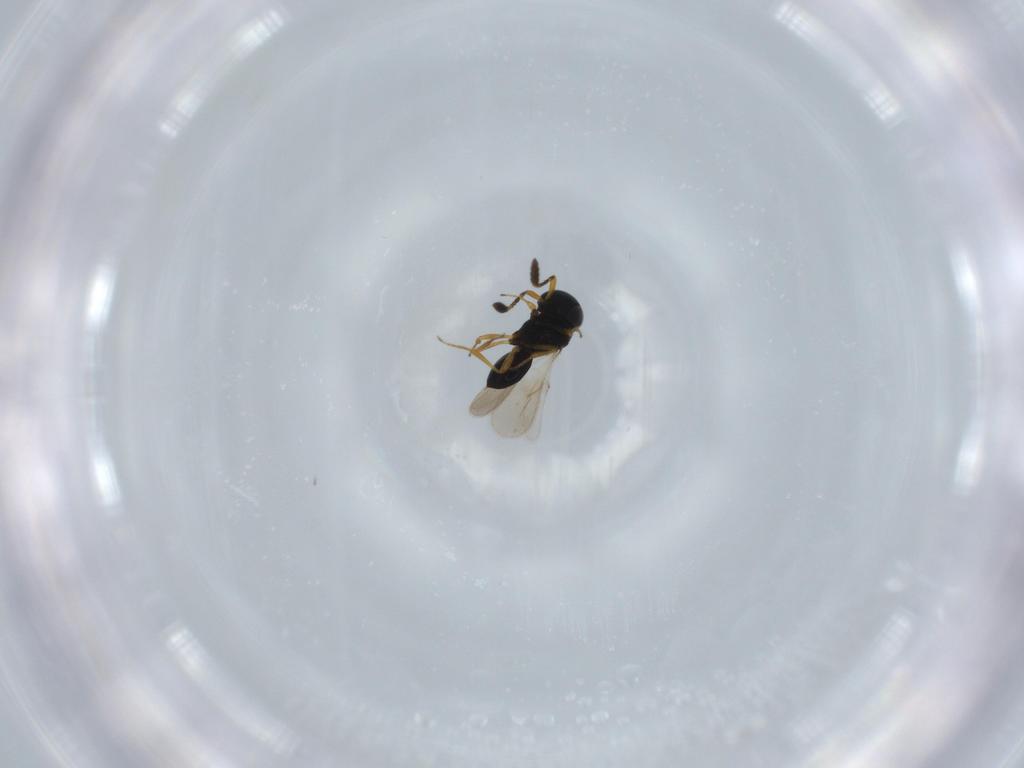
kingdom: Animalia
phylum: Arthropoda
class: Insecta
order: Hymenoptera
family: Scelionidae
